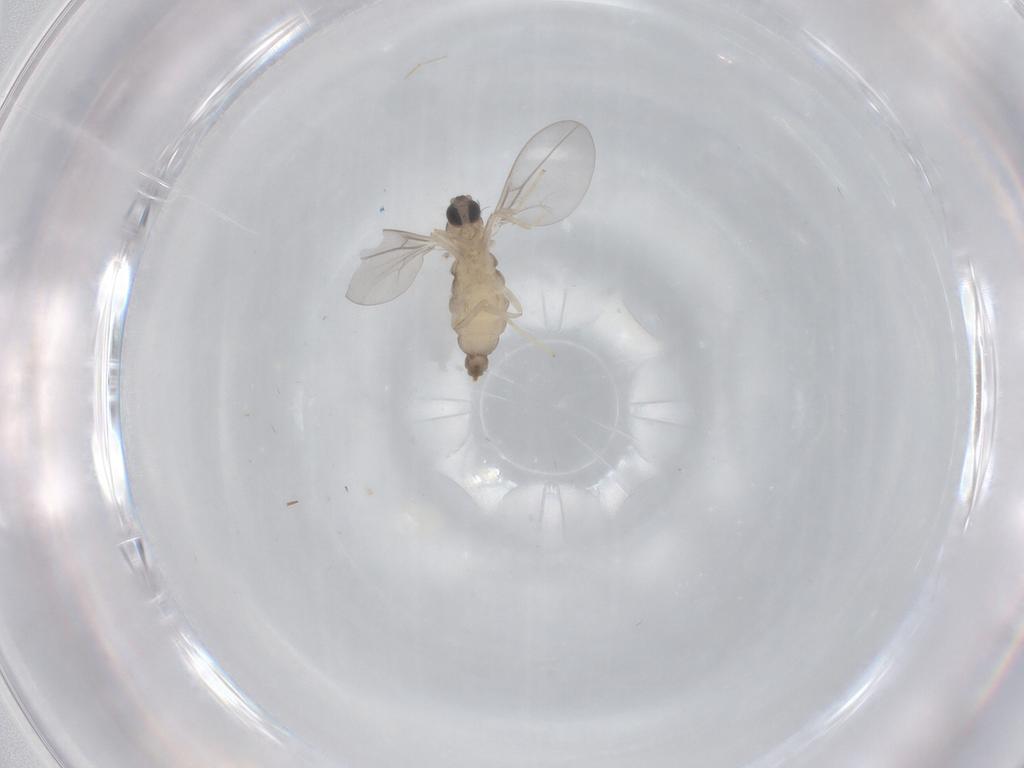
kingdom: Animalia
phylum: Arthropoda
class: Insecta
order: Diptera
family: Cecidomyiidae
